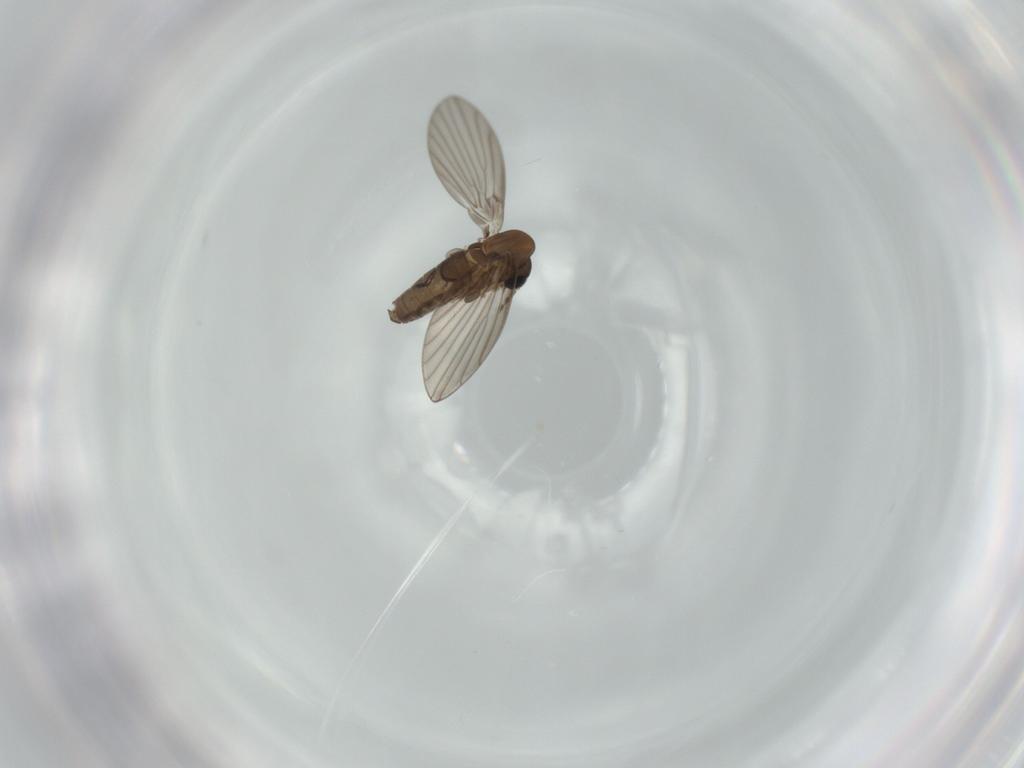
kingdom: Animalia
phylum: Arthropoda
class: Insecta
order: Diptera
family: Psychodidae
